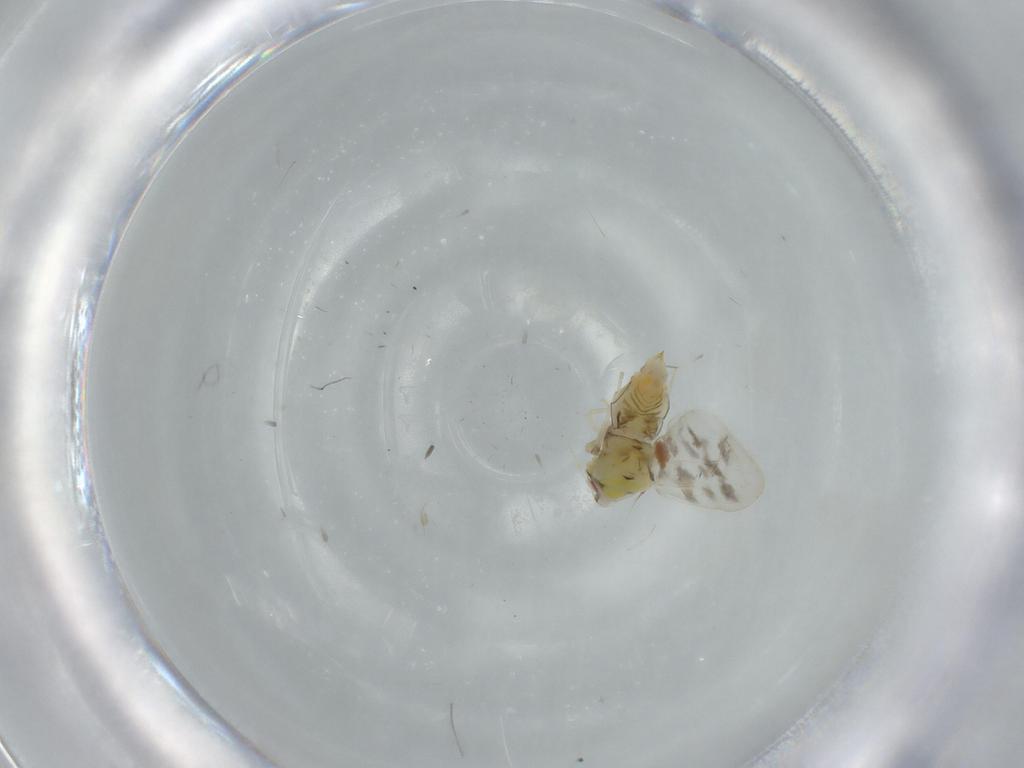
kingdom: Animalia
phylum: Arthropoda
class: Insecta
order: Hemiptera
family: Aleyrodidae
